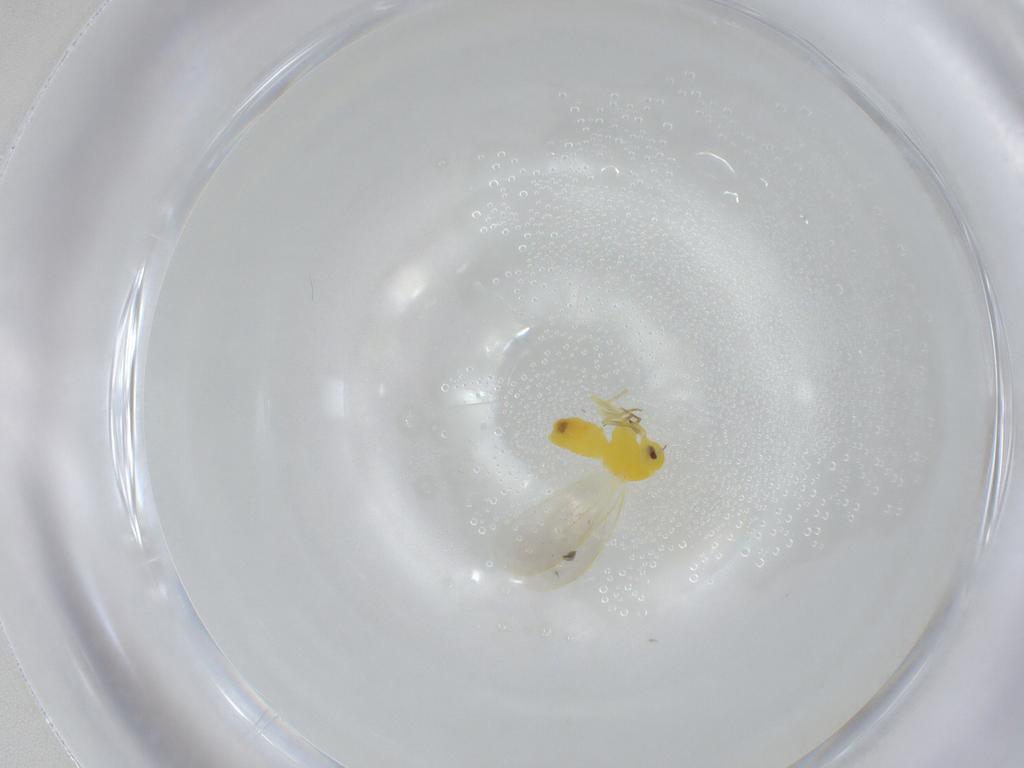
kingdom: Animalia
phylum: Arthropoda
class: Insecta
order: Hemiptera
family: Aleyrodidae
